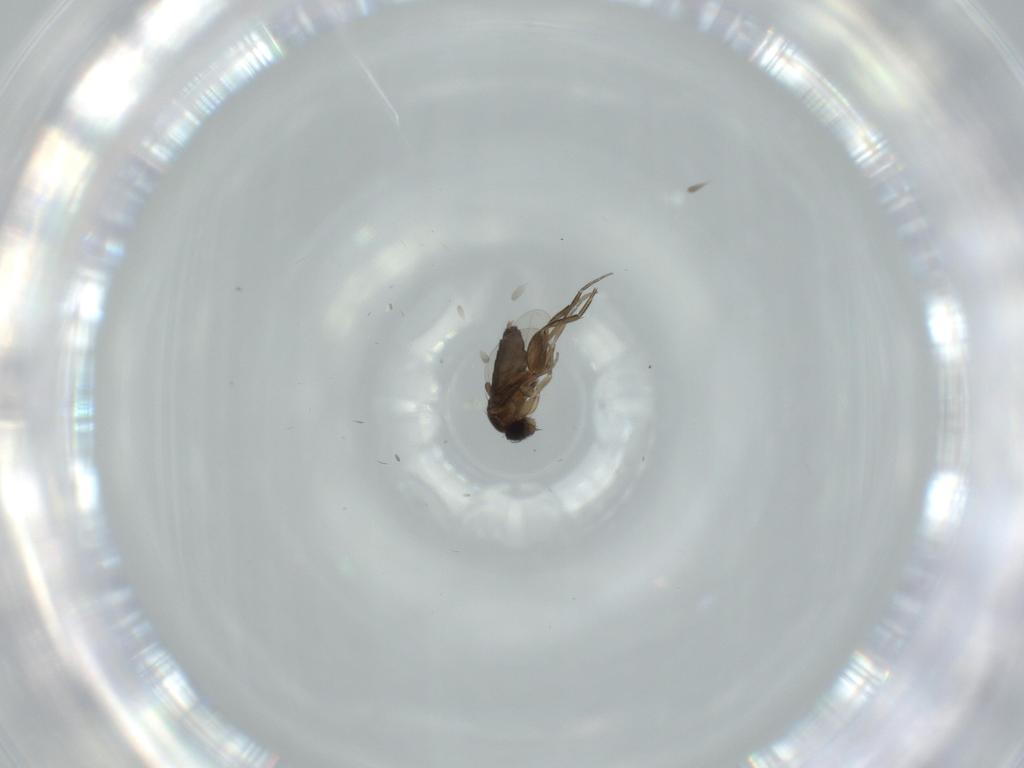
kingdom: Animalia
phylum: Arthropoda
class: Insecta
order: Diptera
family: Phoridae
